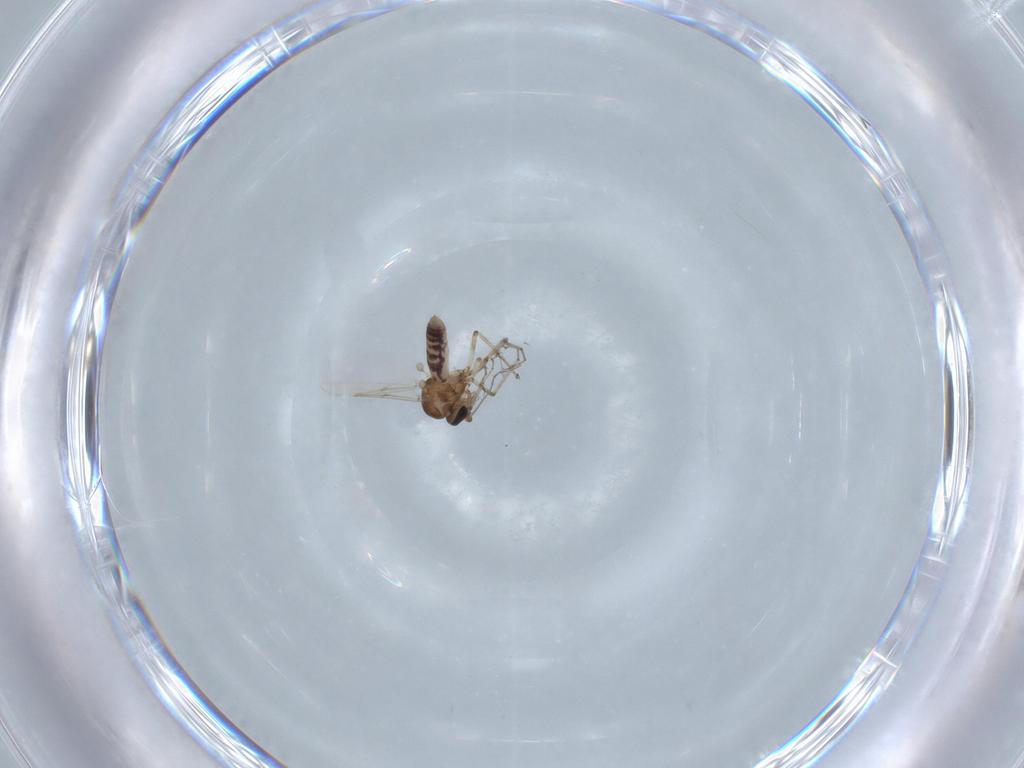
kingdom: Animalia
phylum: Arthropoda
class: Insecta
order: Diptera
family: Ceratopogonidae
